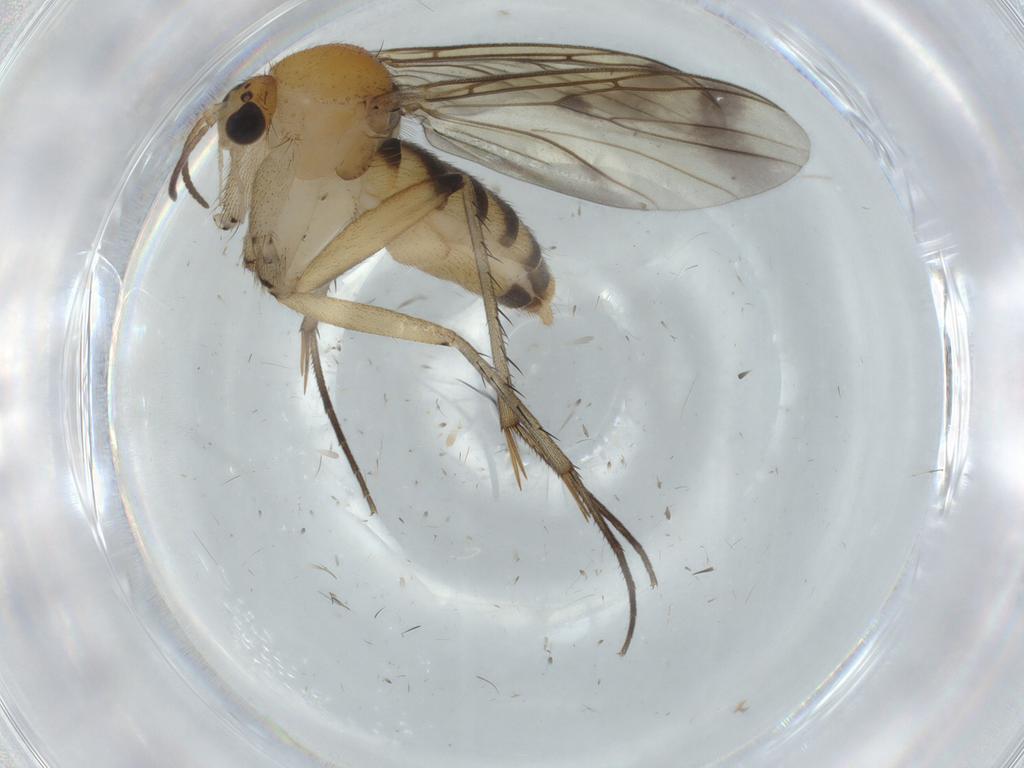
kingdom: Animalia
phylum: Arthropoda
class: Insecta
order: Diptera
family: Mycetophilidae
